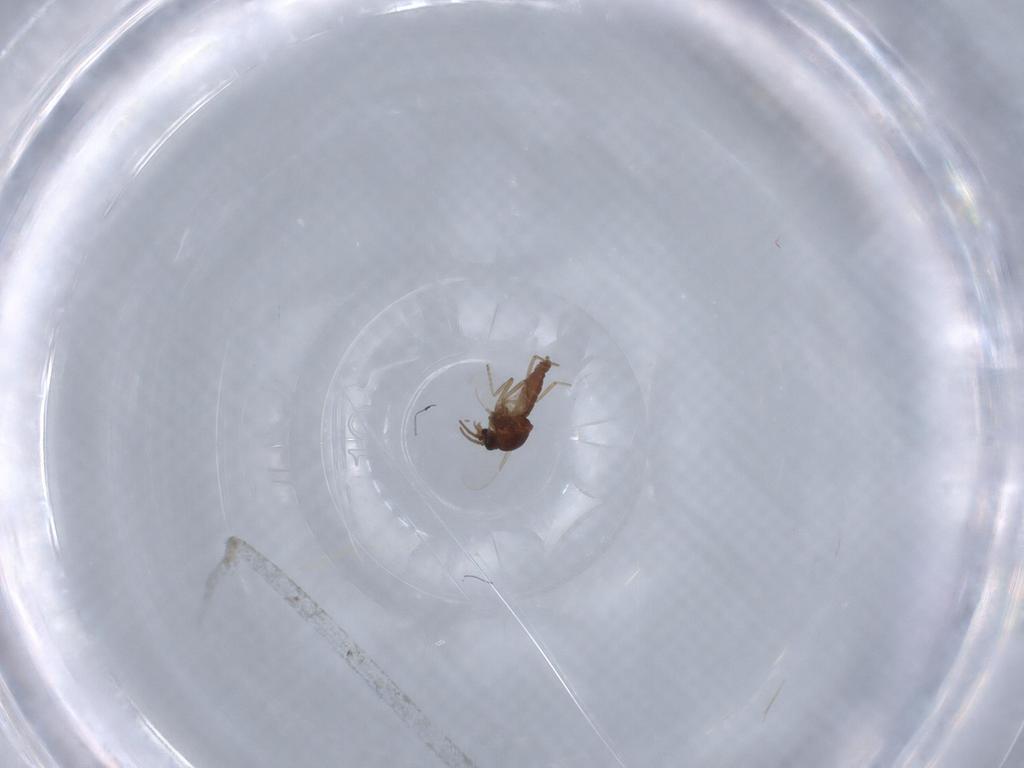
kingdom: Animalia
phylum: Arthropoda
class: Insecta
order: Diptera
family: Ceratopogonidae
